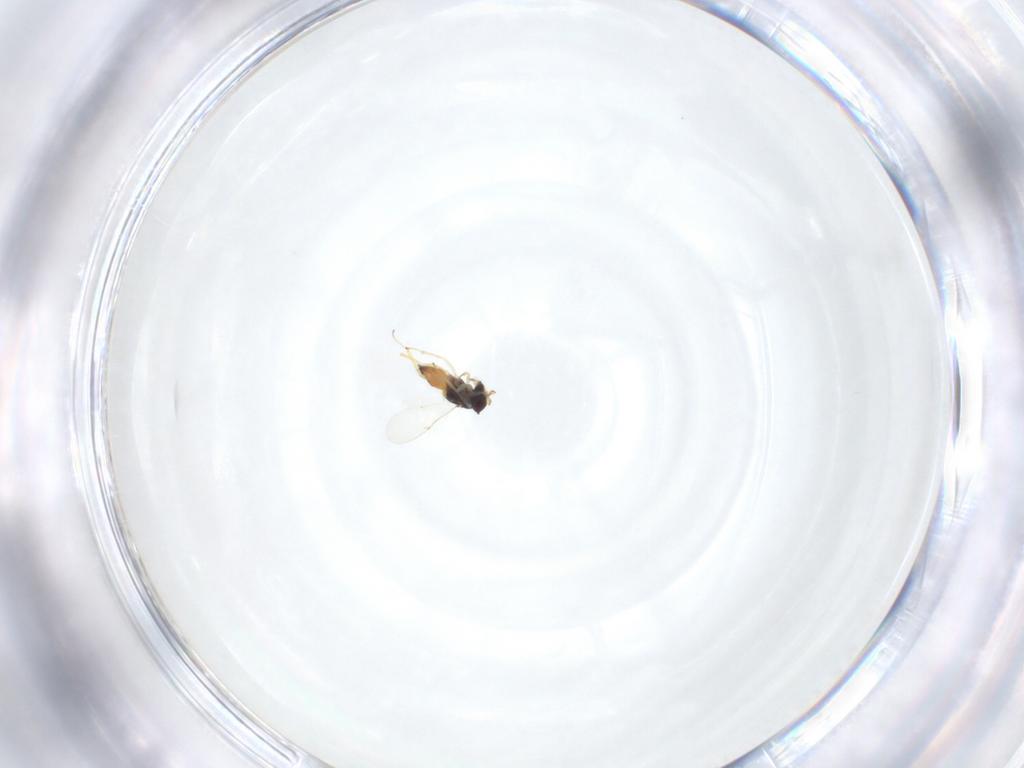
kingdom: Animalia
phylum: Arthropoda
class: Insecta
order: Hymenoptera
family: Encyrtidae
